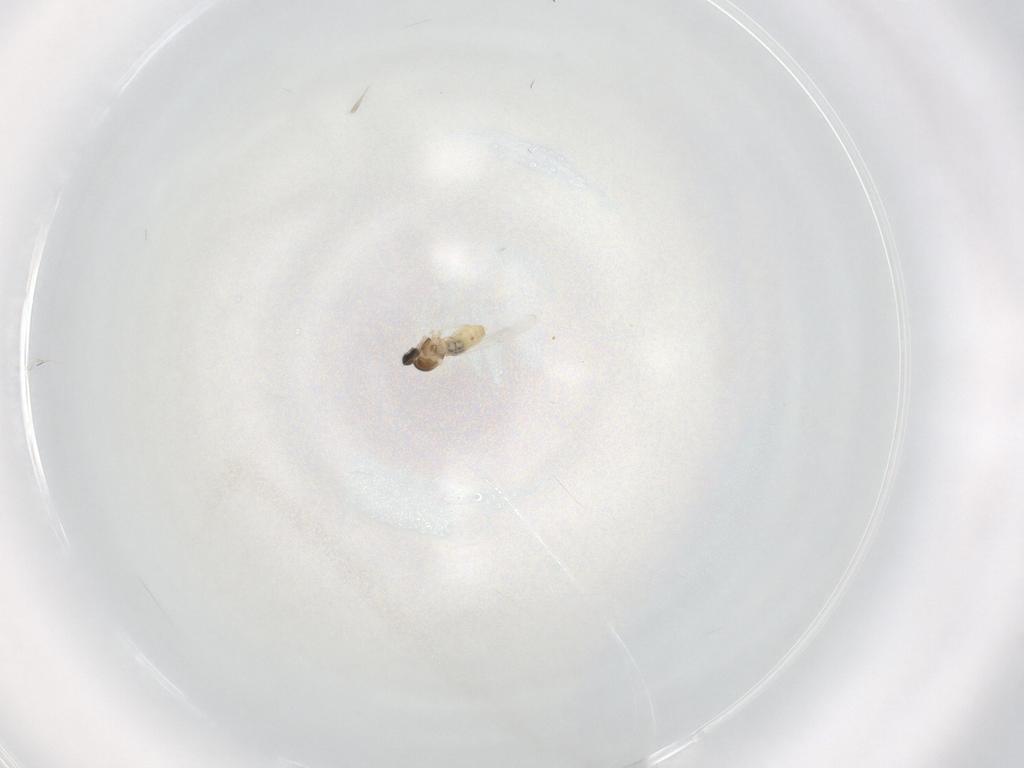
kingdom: Animalia
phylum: Arthropoda
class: Insecta
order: Diptera
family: Cecidomyiidae
